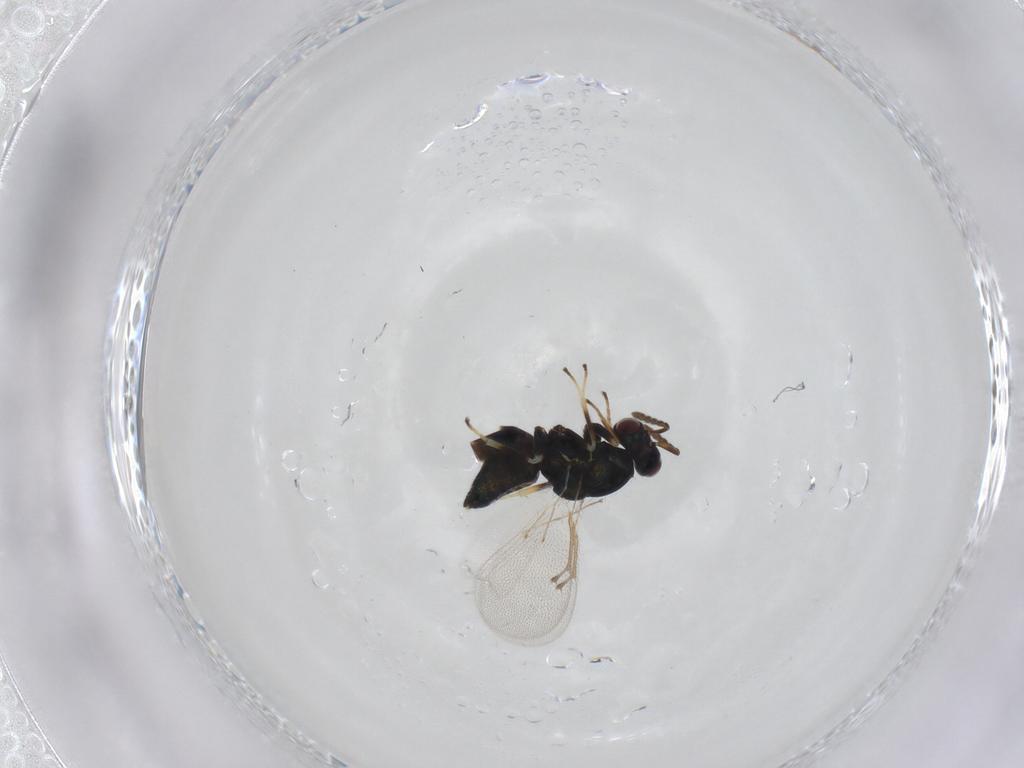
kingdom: Animalia
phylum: Arthropoda
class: Insecta
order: Hymenoptera
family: Eulophidae
